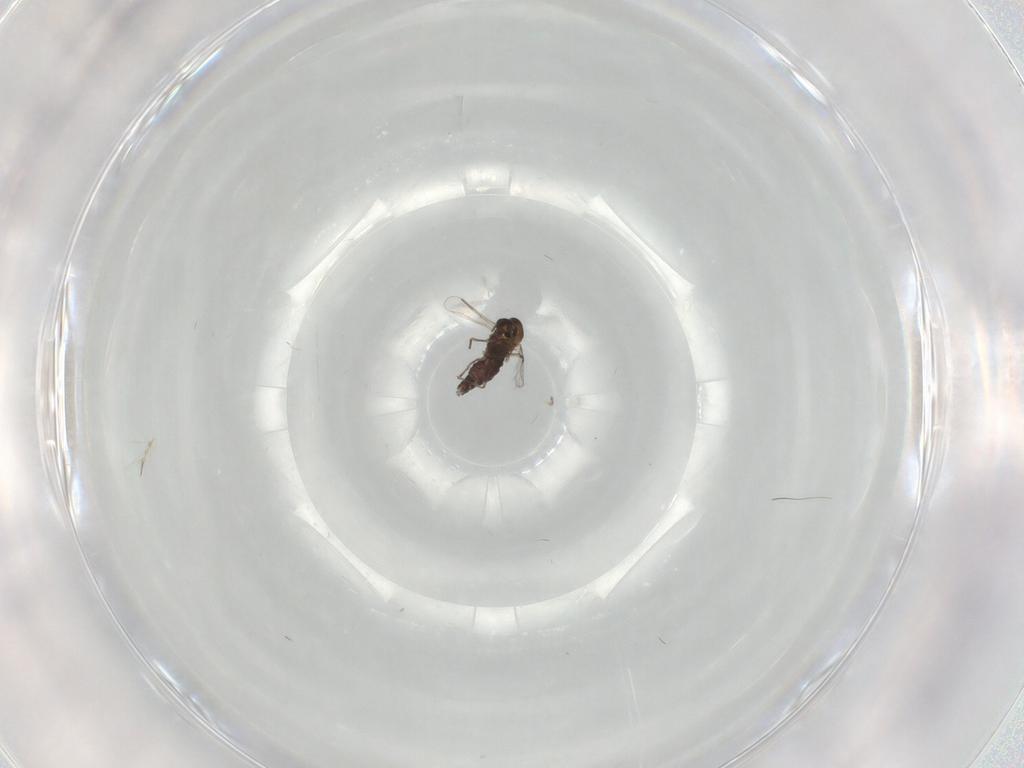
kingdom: Animalia
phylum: Arthropoda
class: Insecta
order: Diptera
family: Chironomidae
